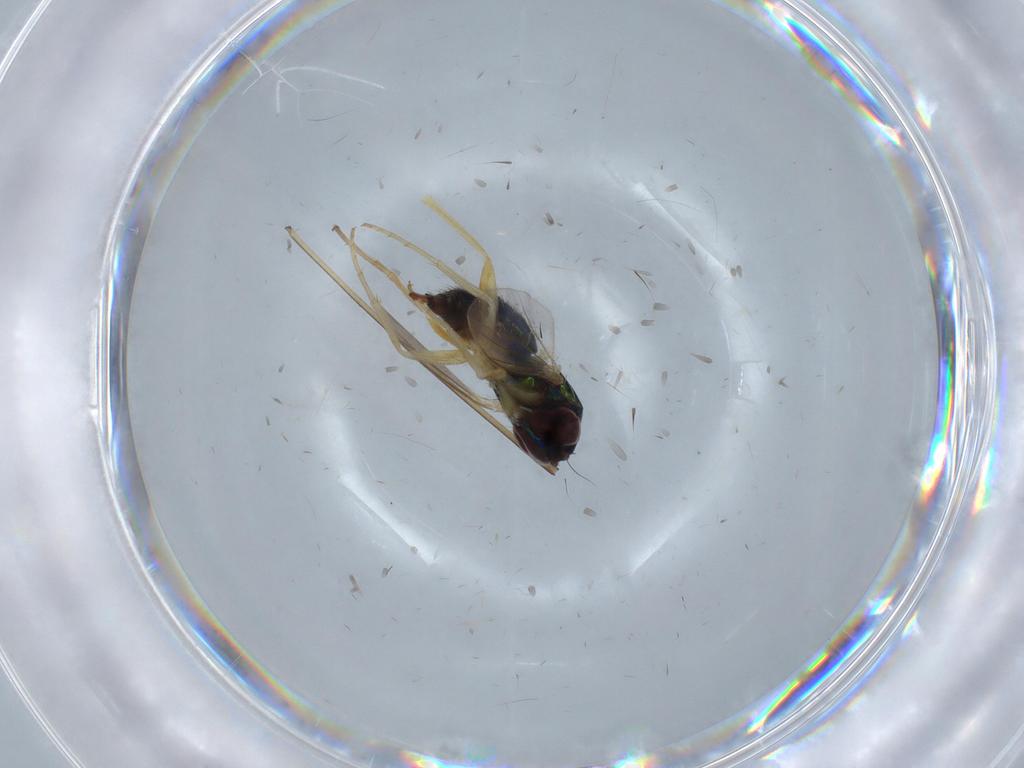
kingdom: Animalia
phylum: Arthropoda
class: Insecta
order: Diptera
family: Dolichopodidae
